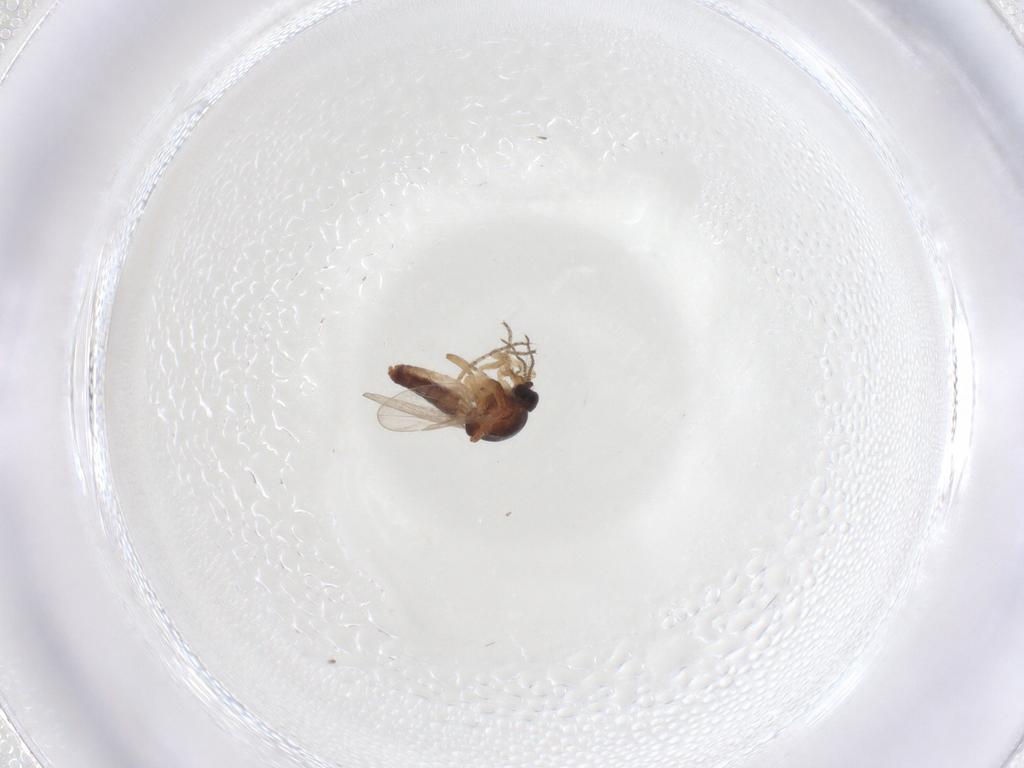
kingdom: Animalia
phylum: Arthropoda
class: Insecta
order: Diptera
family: Ceratopogonidae
